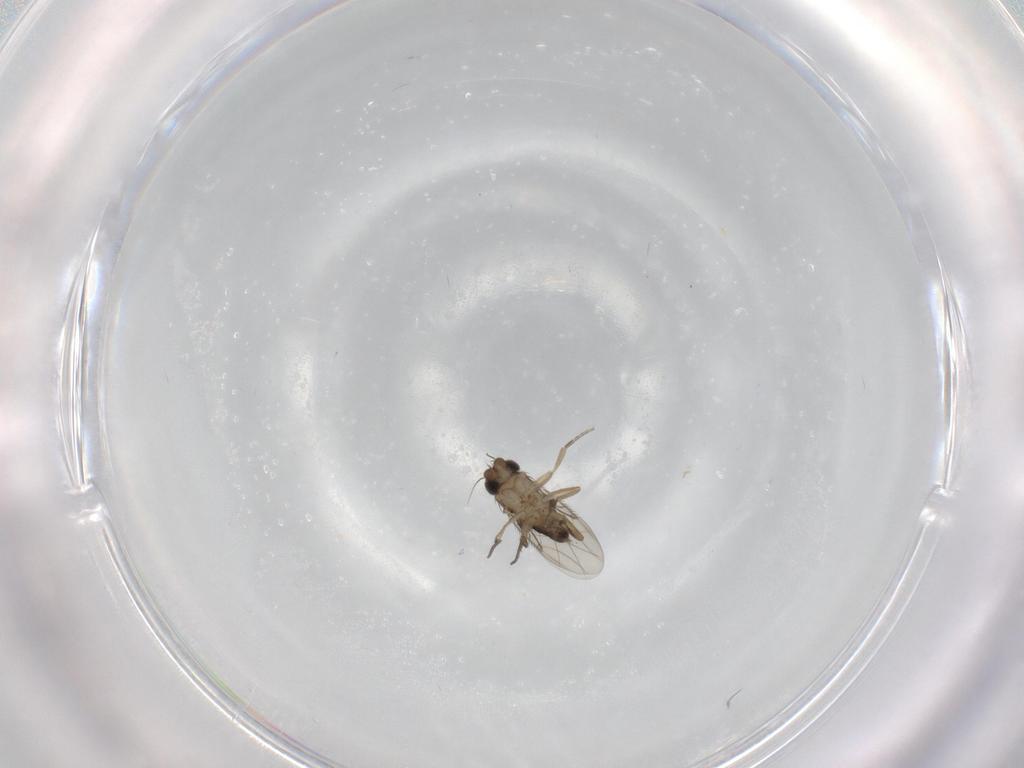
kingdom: Animalia
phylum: Arthropoda
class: Insecta
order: Diptera
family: Phoridae
